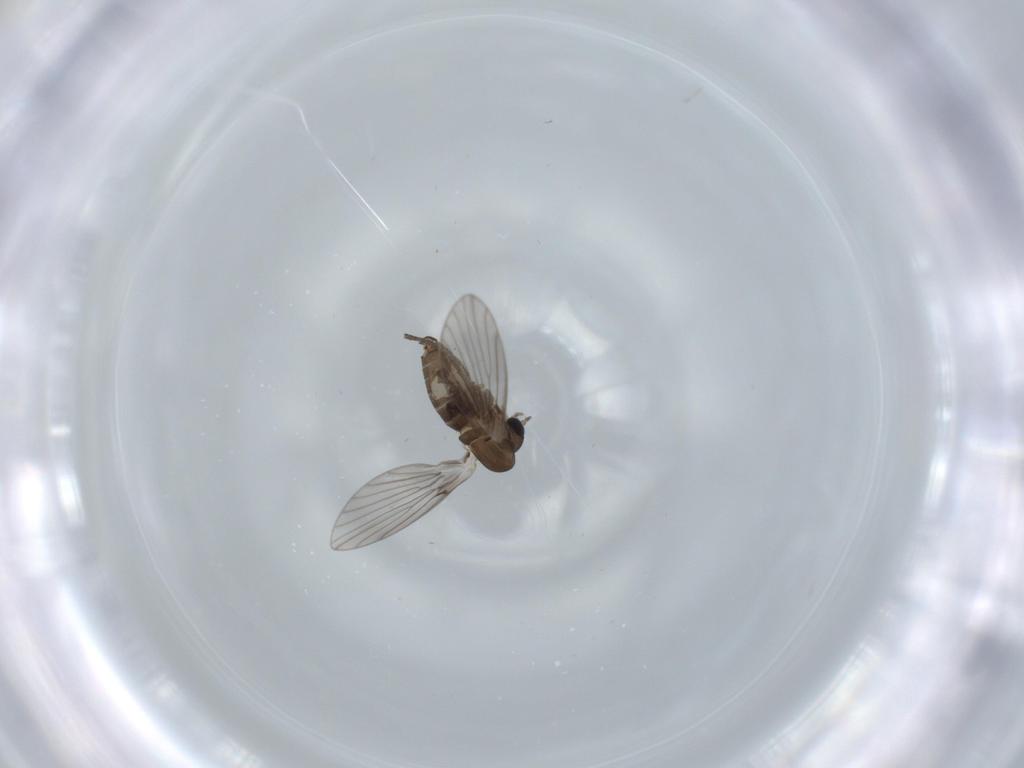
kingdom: Animalia
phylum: Arthropoda
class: Insecta
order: Diptera
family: Psychodidae
